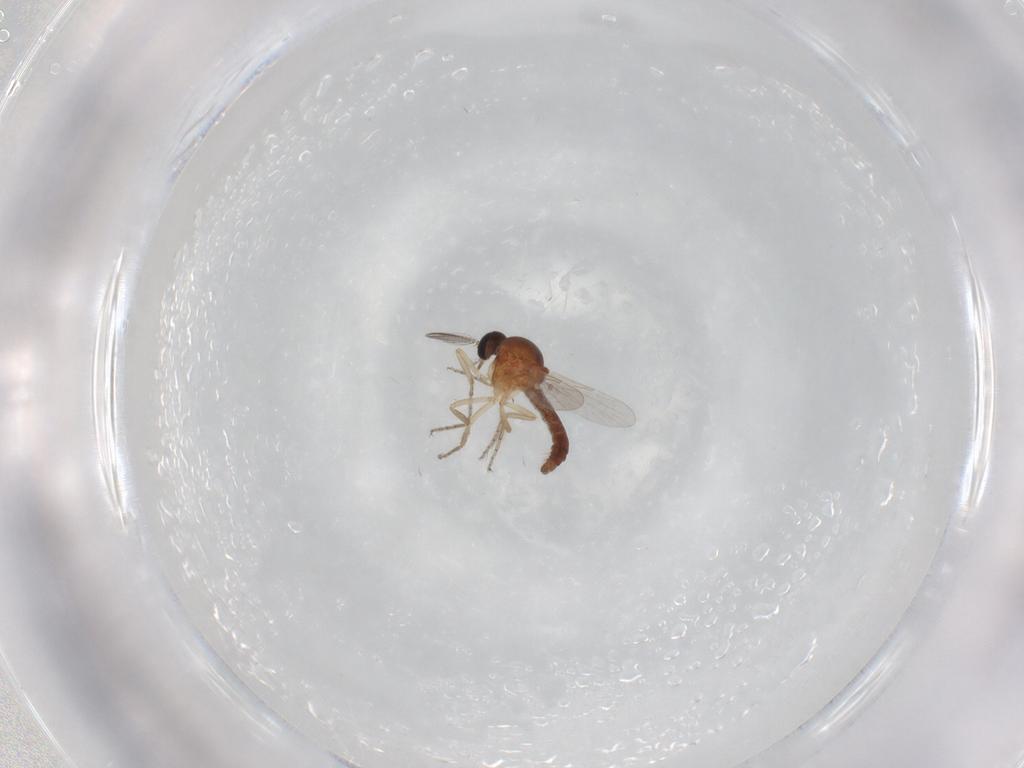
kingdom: Animalia
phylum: Arthropoda
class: Insecta
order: Diptera
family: Ceratopogonidae
